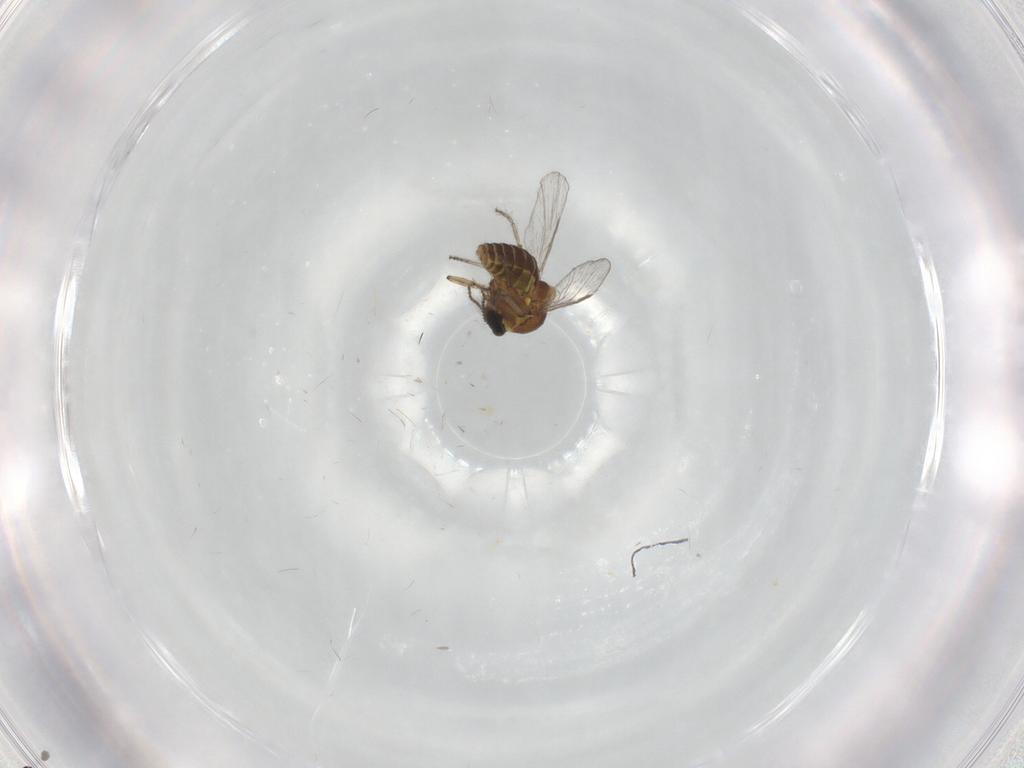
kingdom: Animalia
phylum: Arthropoda
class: Insecta
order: Diptera
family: Ceratopogonidae
